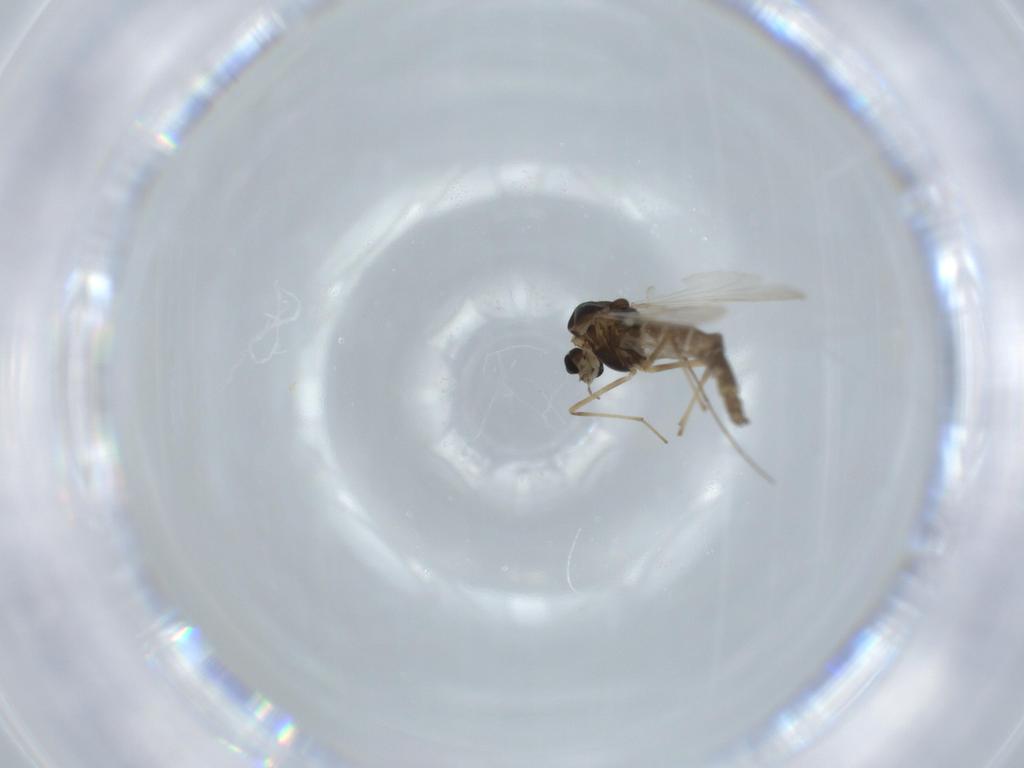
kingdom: Animalia
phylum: Arthropoda
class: Insecta
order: Diptera
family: Chironomidae
